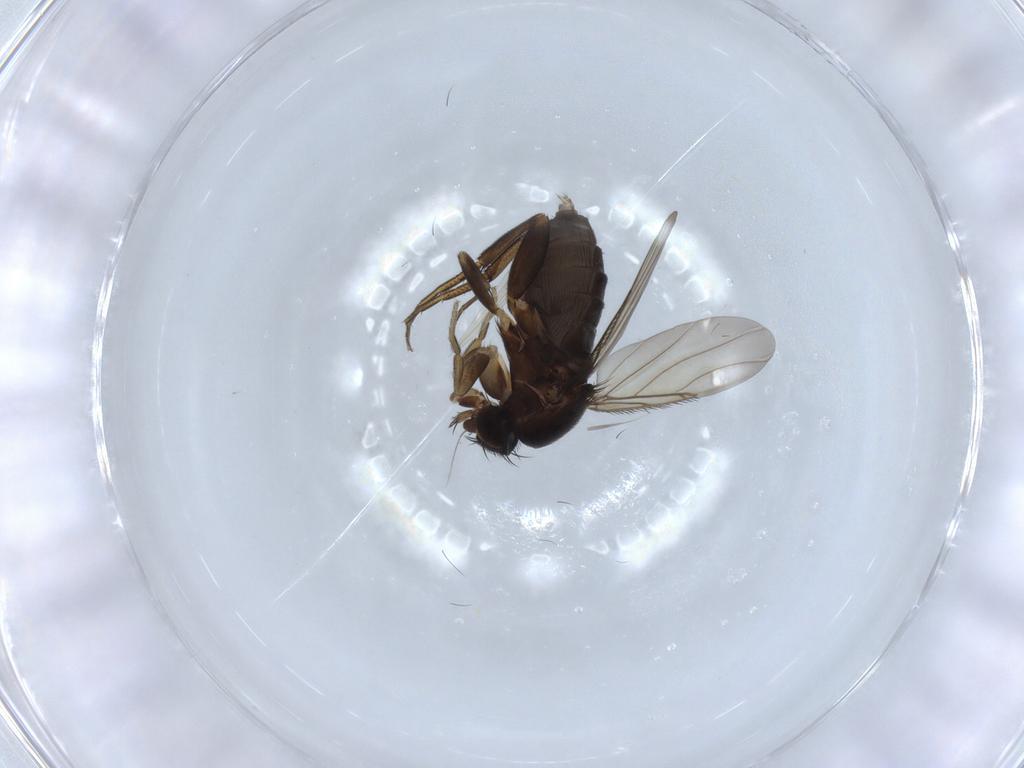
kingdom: Animalia
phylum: Arthropoda
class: Insecta
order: Diptera
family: Phoridae
